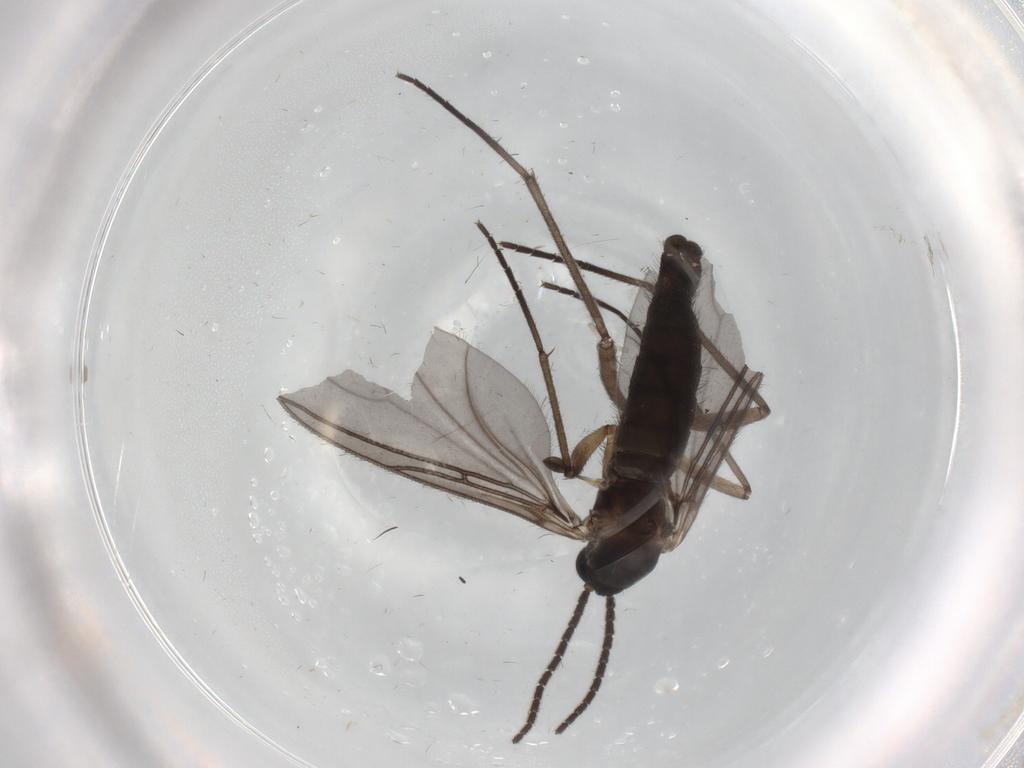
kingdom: Animalia
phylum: Arthropoda
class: Insecta
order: Diptera
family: Sciaridae
